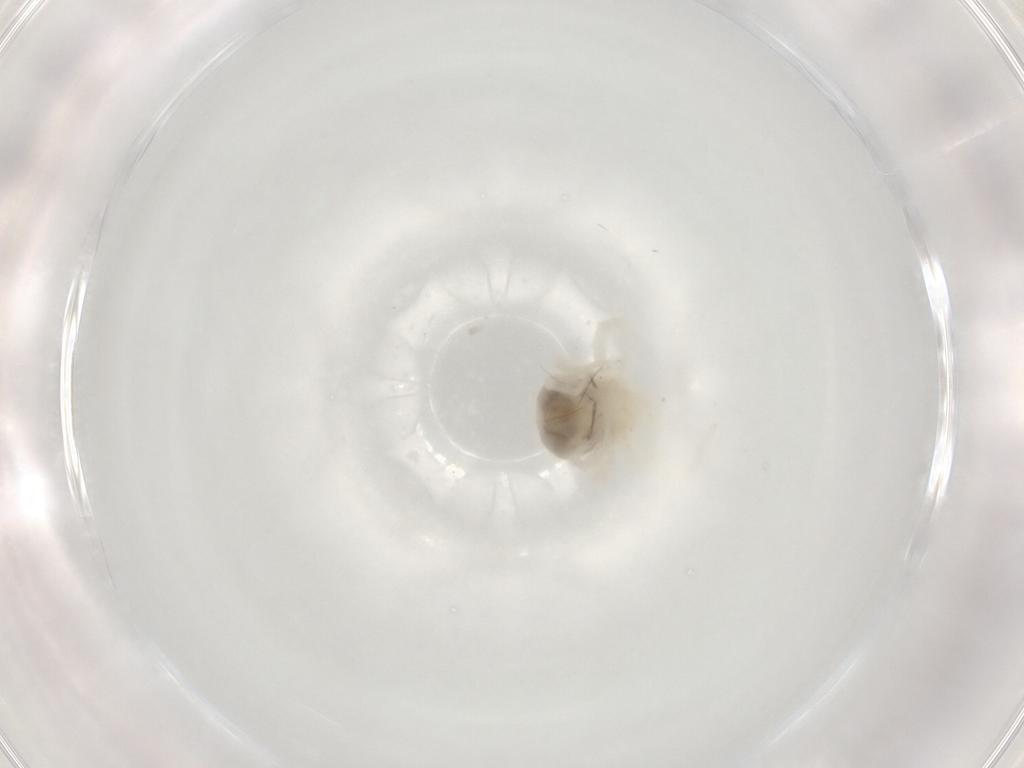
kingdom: Animalia
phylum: Arthropoda
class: Arachnida
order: Trombidiformes
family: Anystidae
